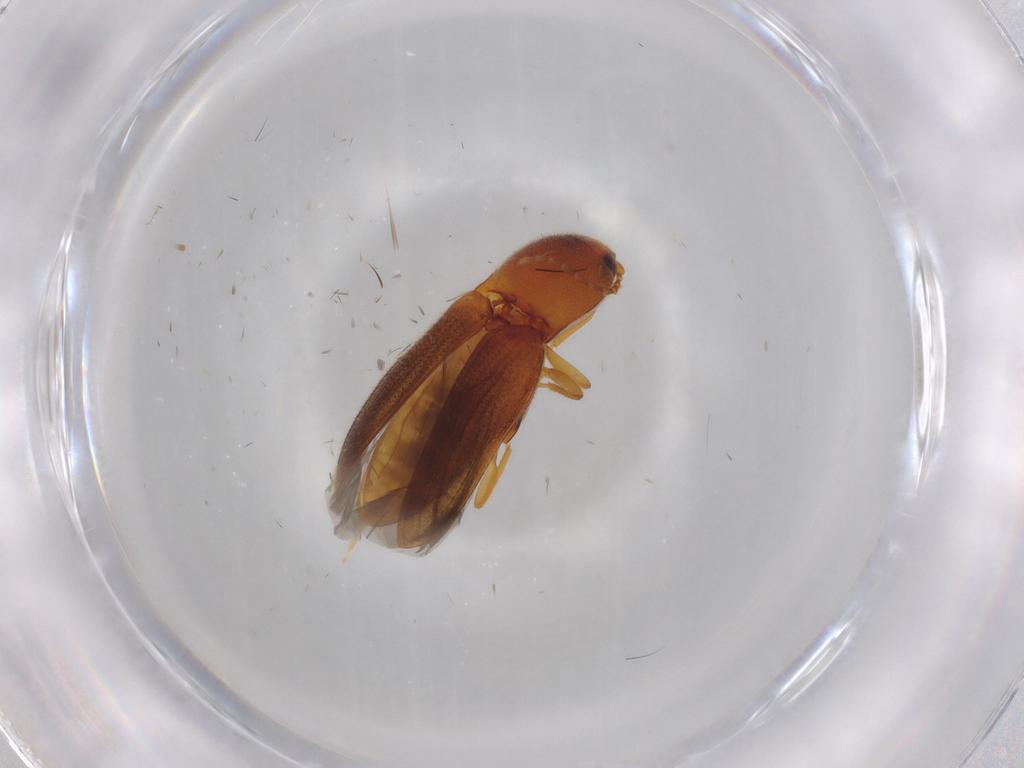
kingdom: Animalia
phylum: Arthropoda
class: Insecta
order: Coleoptera
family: Elateridae
